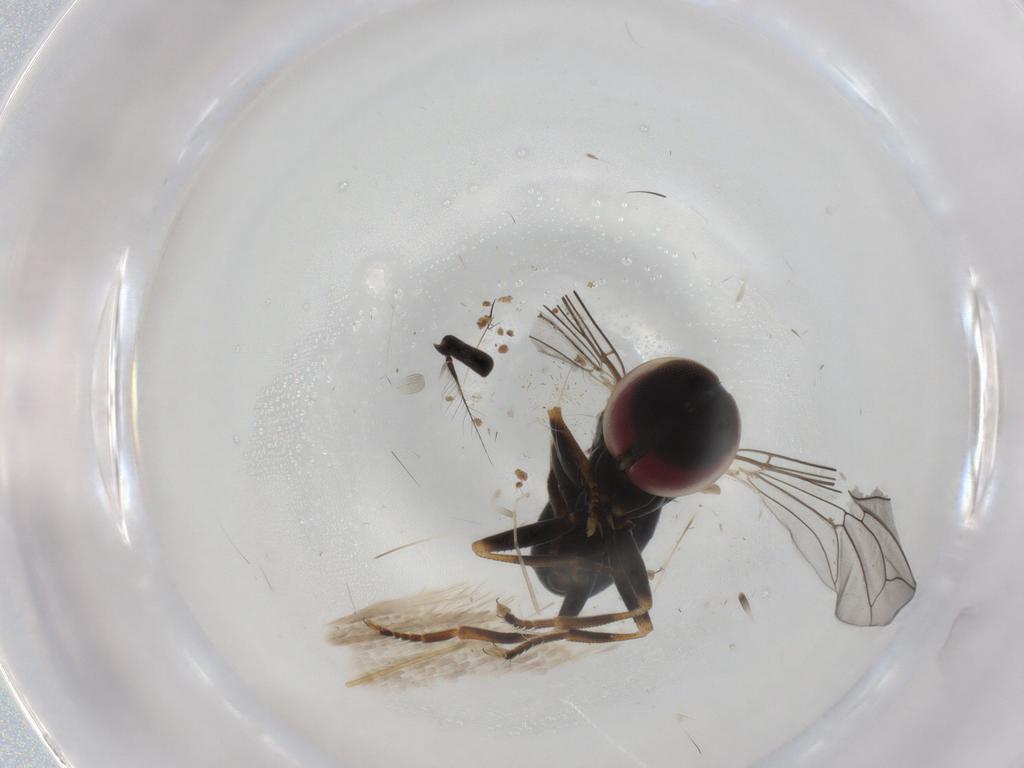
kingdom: Animalia
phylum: Arthropoda
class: Insecta
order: Diptera
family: Pipunculidae
